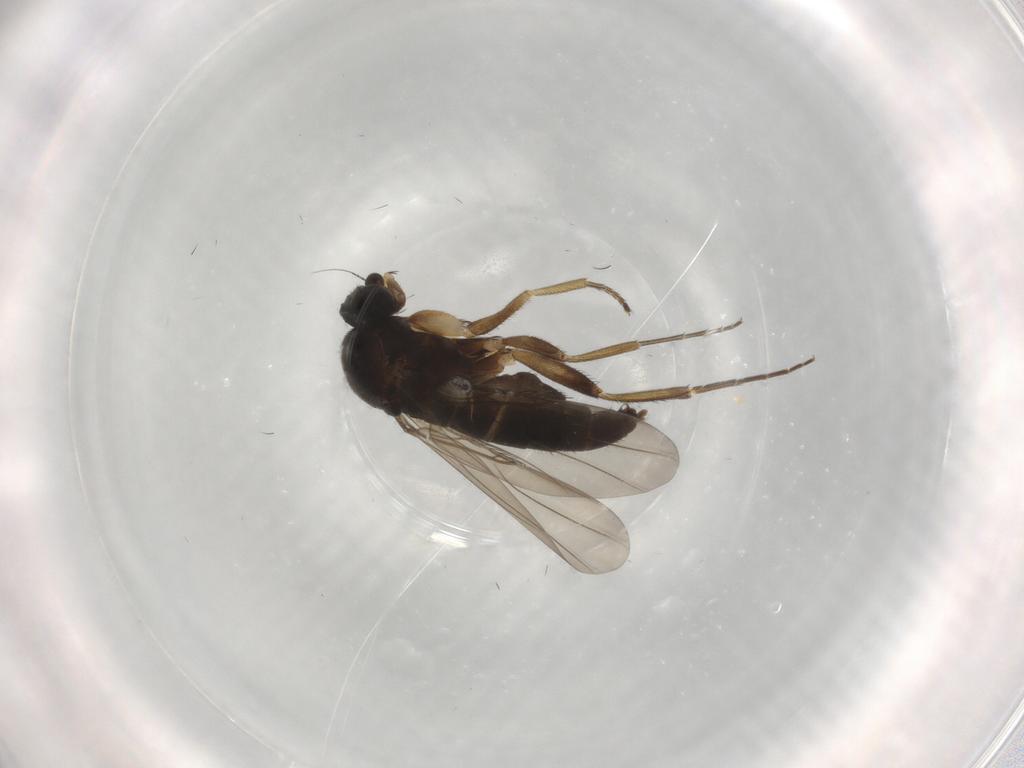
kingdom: Animalia
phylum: Arthropoda
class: Insecta
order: Diptera
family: Phoridae
